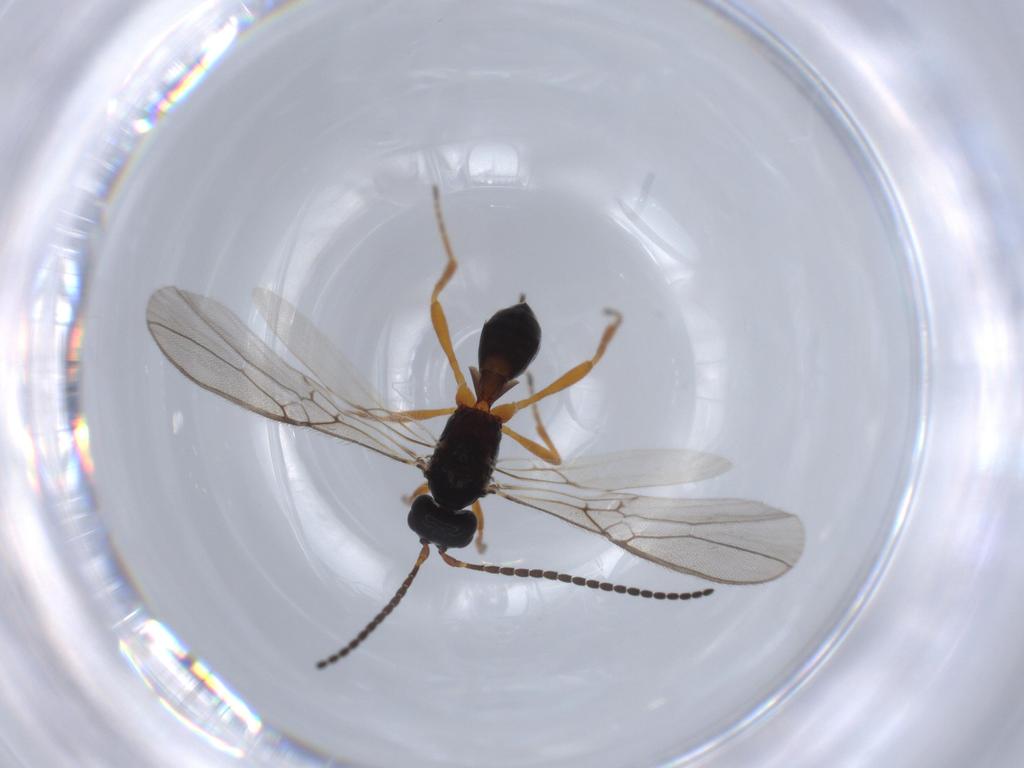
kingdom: Animalia
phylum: Arthropoda
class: Insecta
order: Hymenoptera
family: Braconidae
